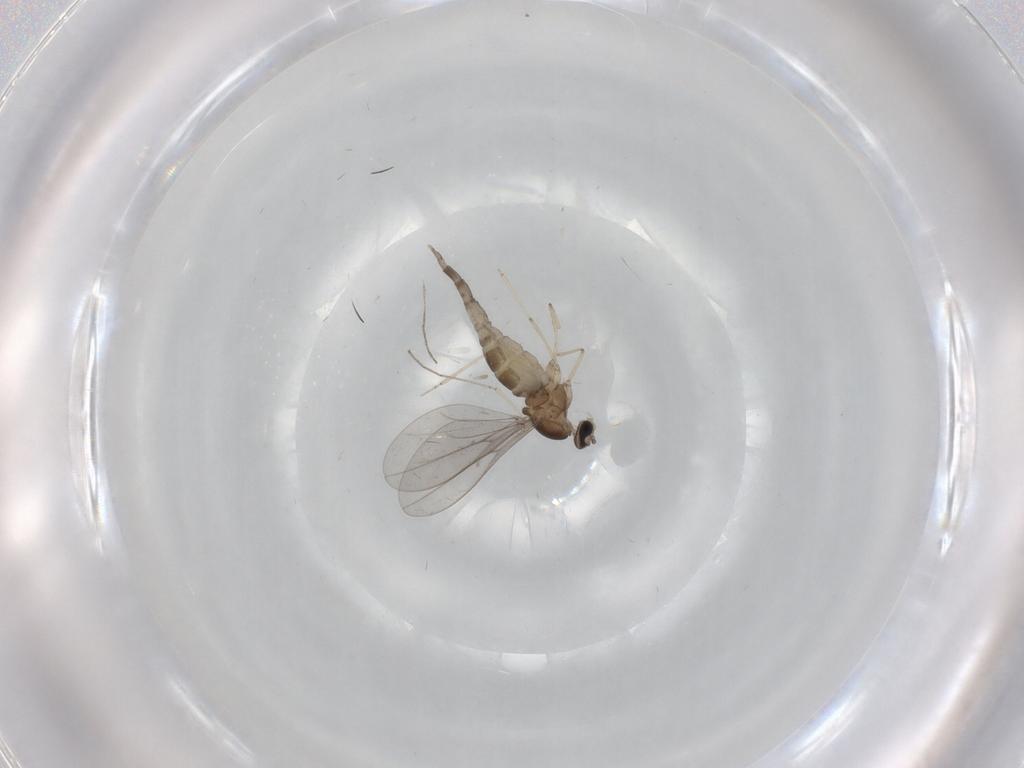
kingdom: Animalia
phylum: Arthropoda
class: Insecta
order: Diptera
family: Cecidomyiidae
